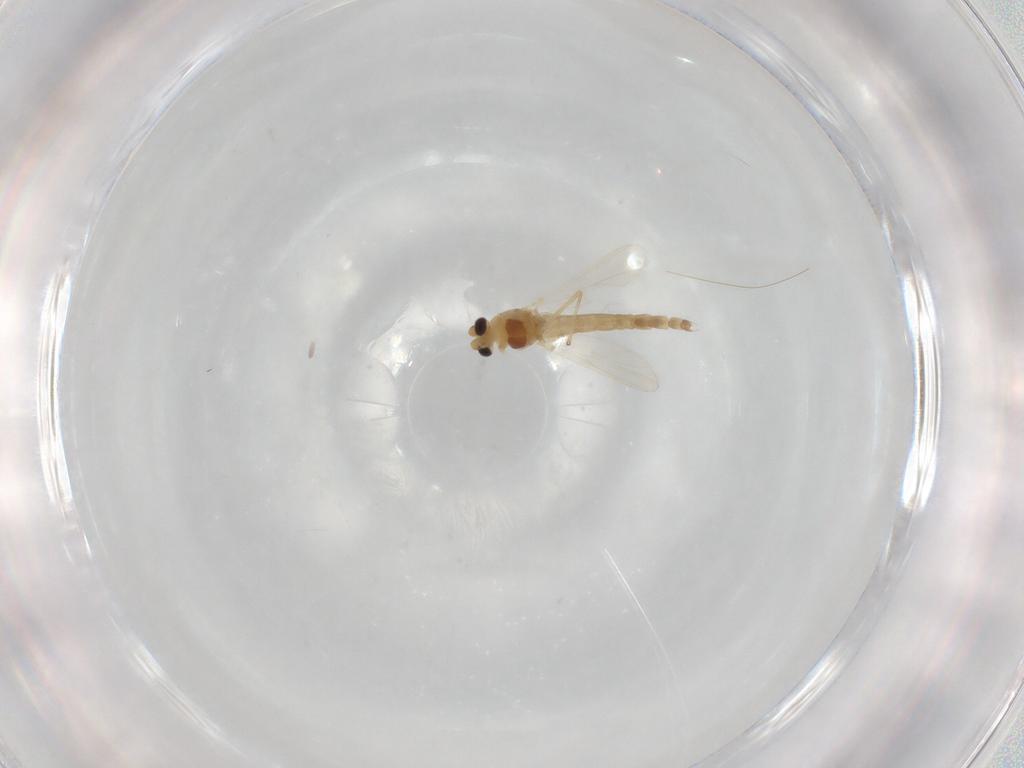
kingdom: Animalia
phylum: Arthropoda
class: Insecta
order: Diptera
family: Chironomidae
